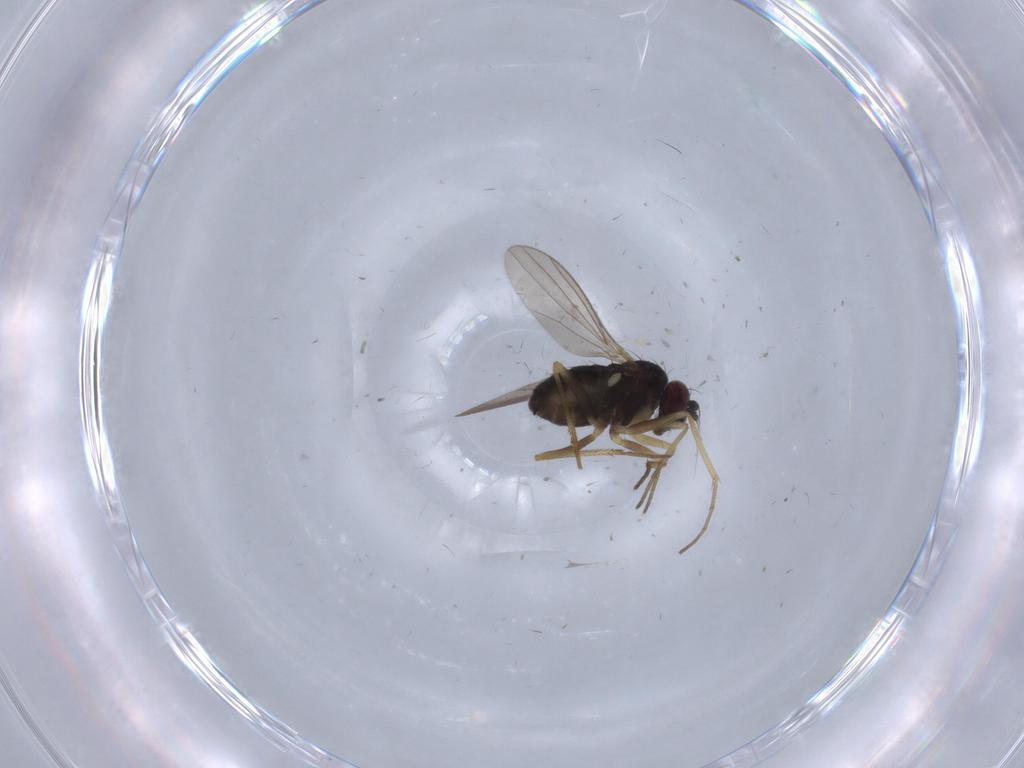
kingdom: Animalia
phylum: Arthropoda
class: Insecta
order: Diptera
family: Dolichopodidae
